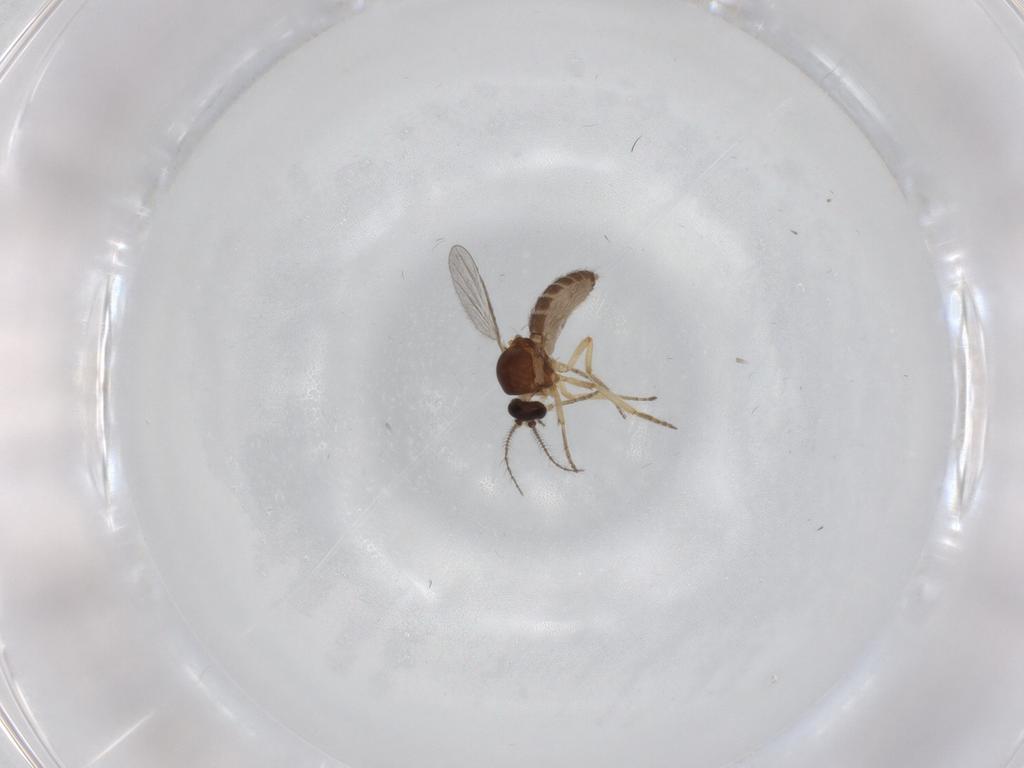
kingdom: Animalia
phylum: Arthropoda
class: Insecta
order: Diptera
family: Ceratopogonidae
